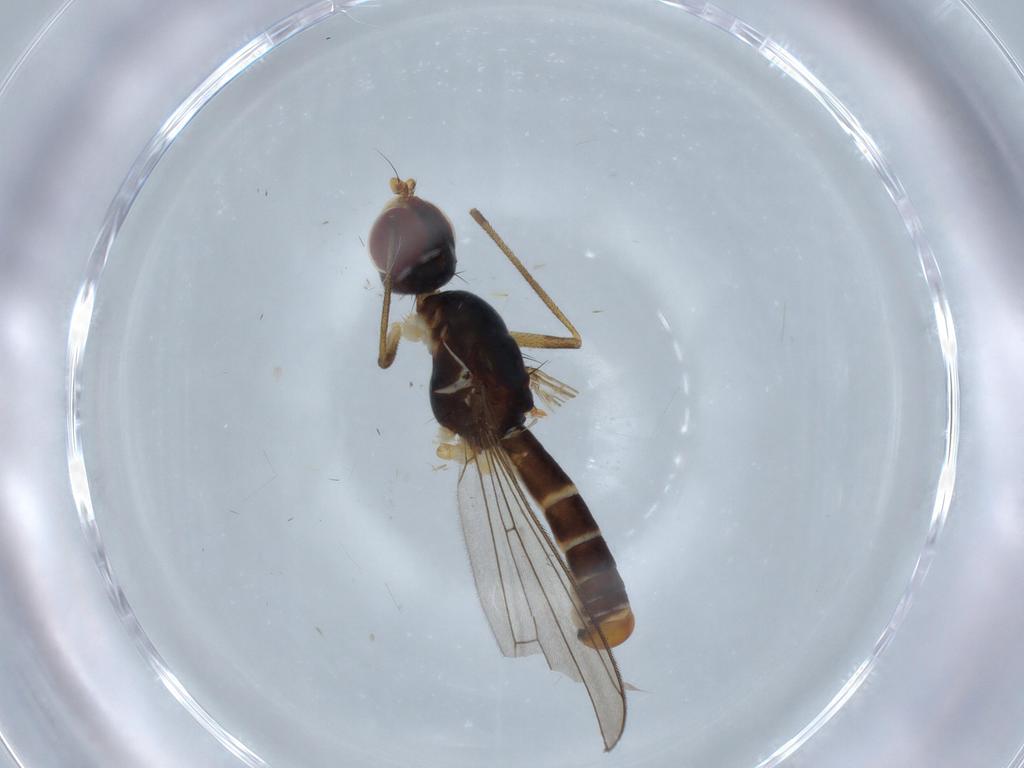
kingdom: Animalia
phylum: Arthropoda
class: Insecta
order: Diptera
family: Micropezidae
